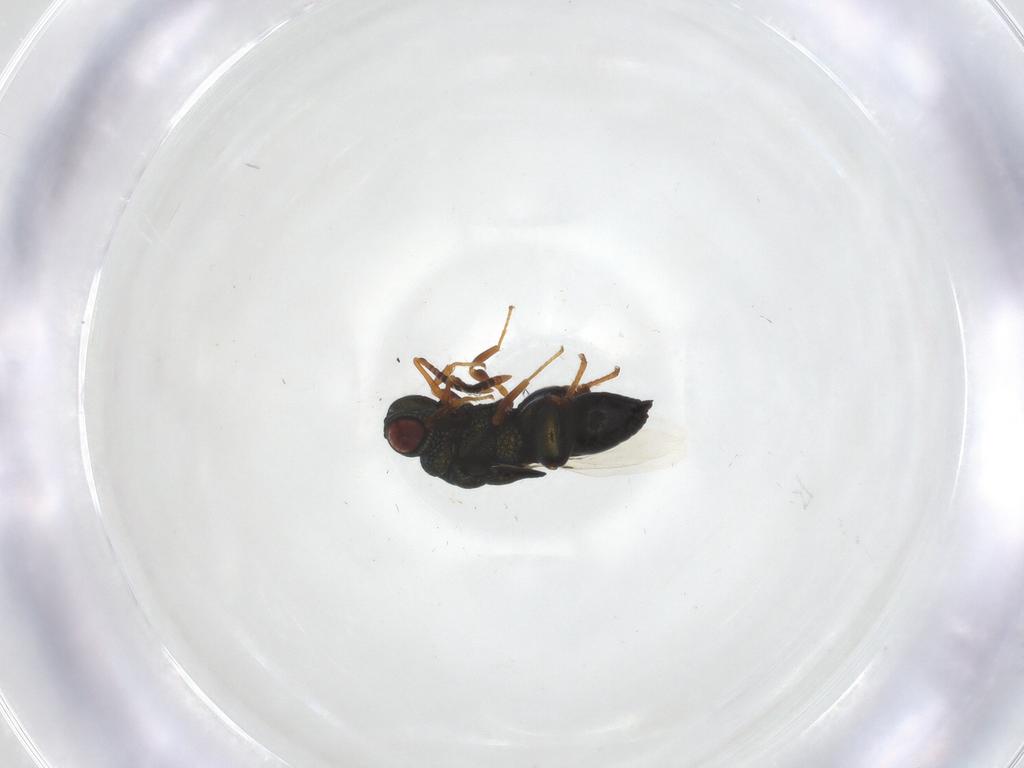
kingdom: Animalia
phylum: Arthropoda
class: Insecta
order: Hymenoptera
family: Chalcididae
